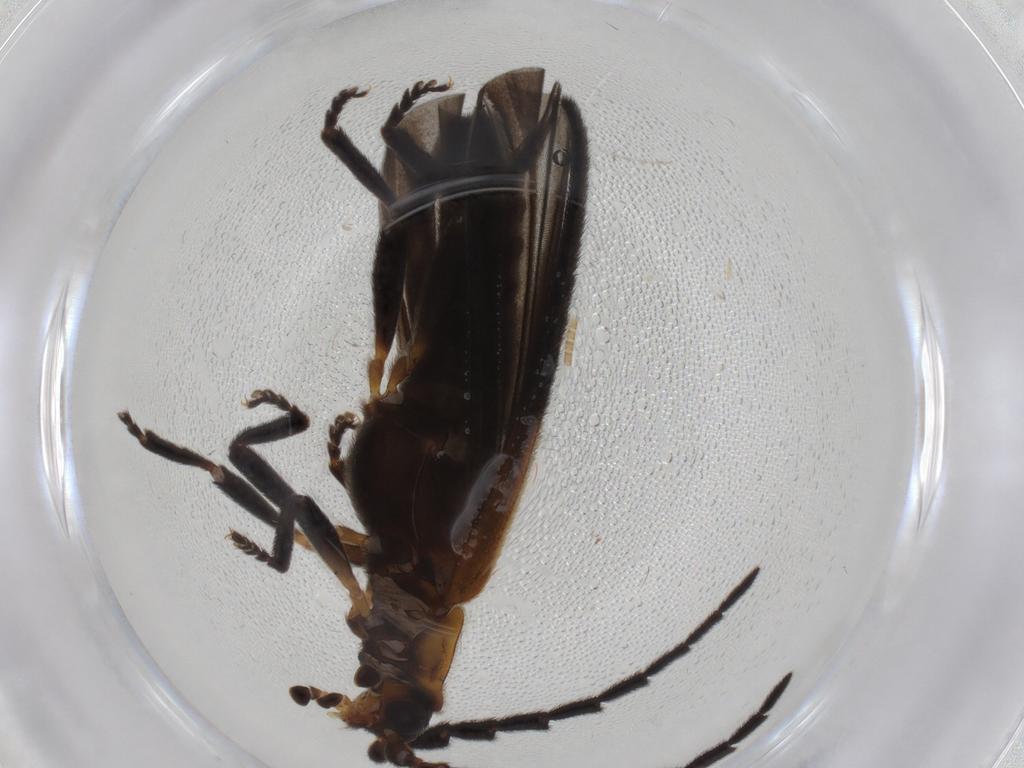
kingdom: Animalia
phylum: Arthropoda
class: Insecta
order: Coleoptera
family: Lycidae
